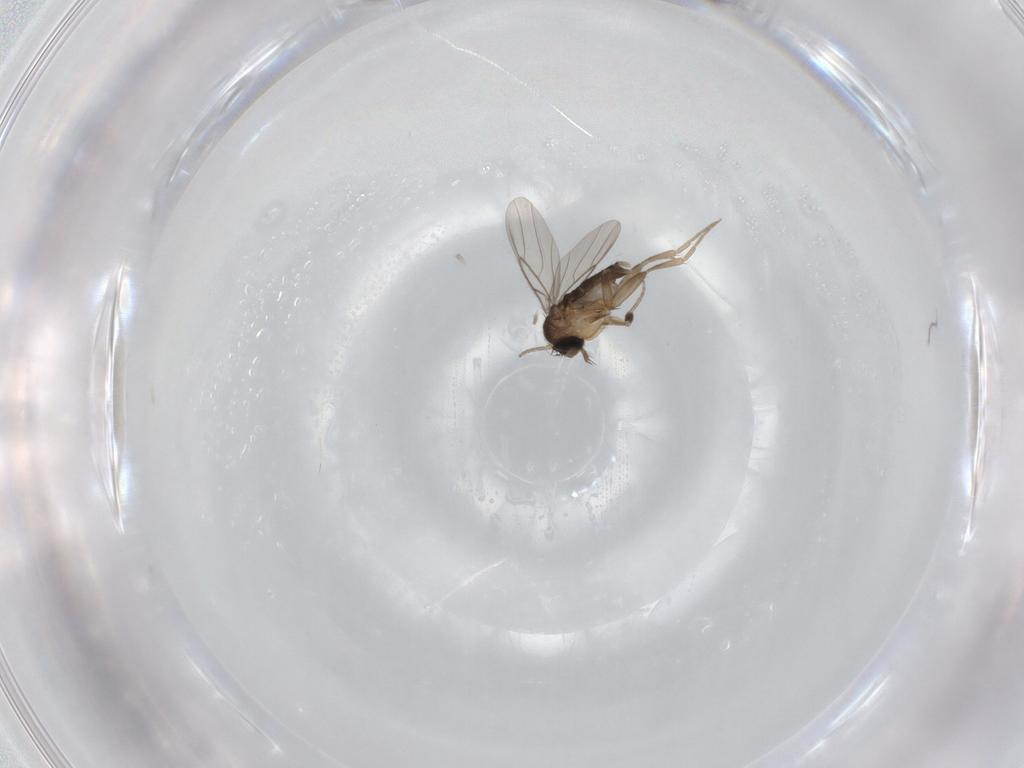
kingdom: Animalia
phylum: Arthropoda
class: Insecta
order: Diptera
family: Phoridae
